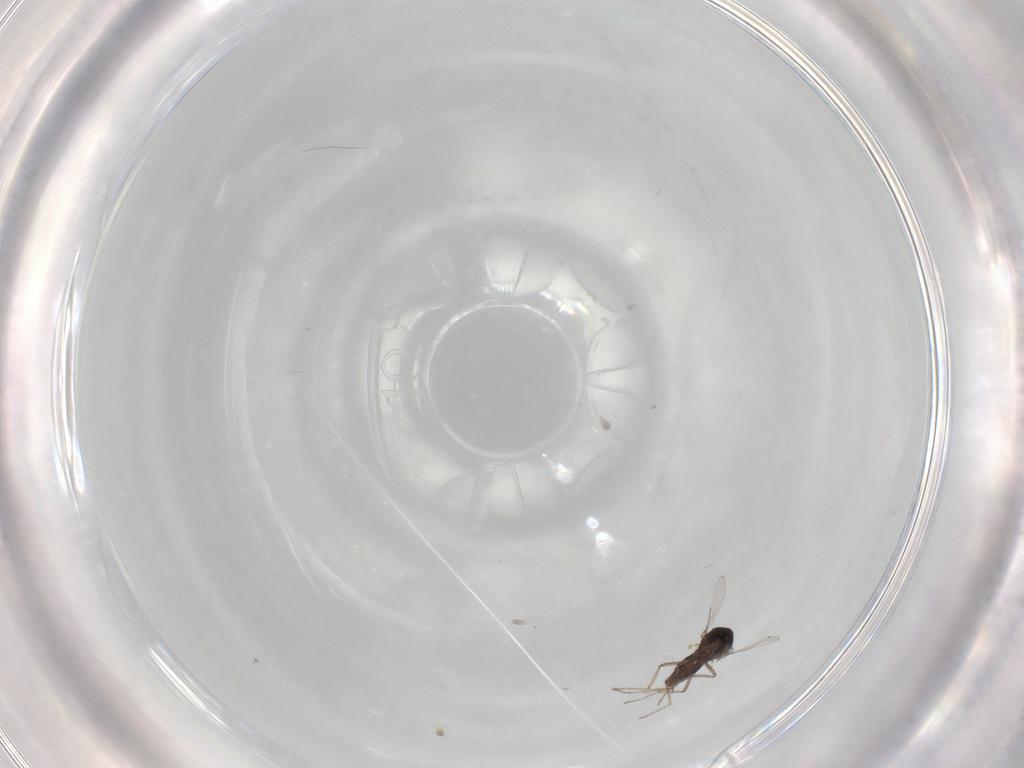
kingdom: Animalia
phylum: Arthropoda
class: Insecta
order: Diptera
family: Ceratopogonidae
